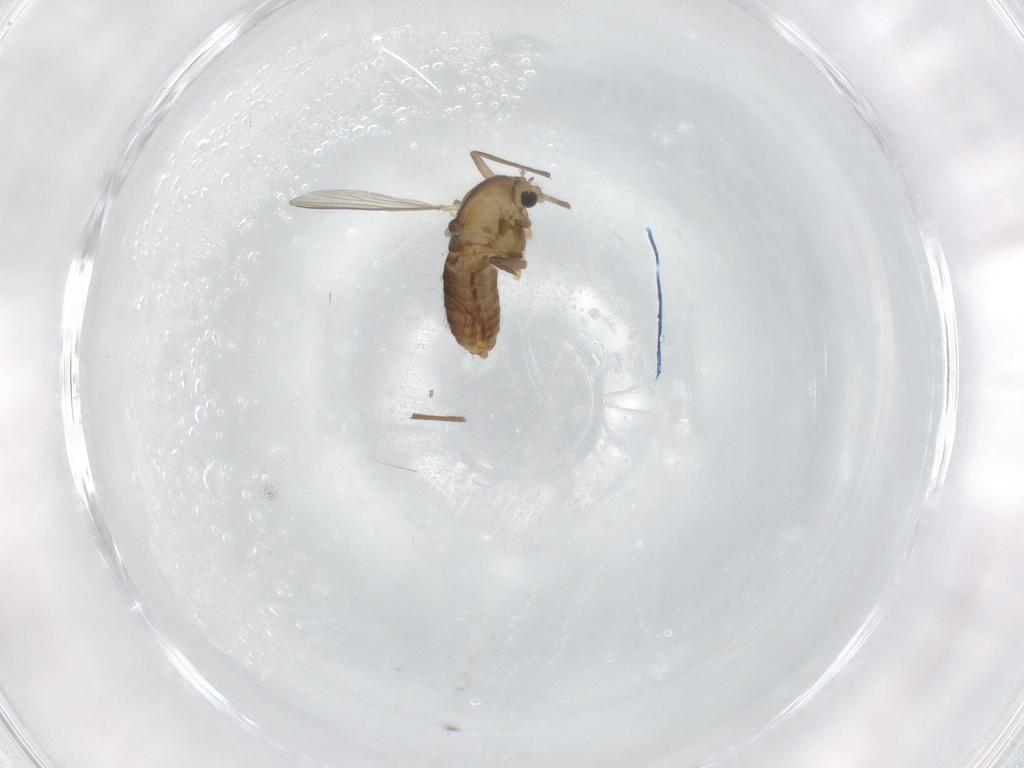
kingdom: Animalia
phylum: Arthropoda
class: Insecta
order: Diptera
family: Chironomidae
